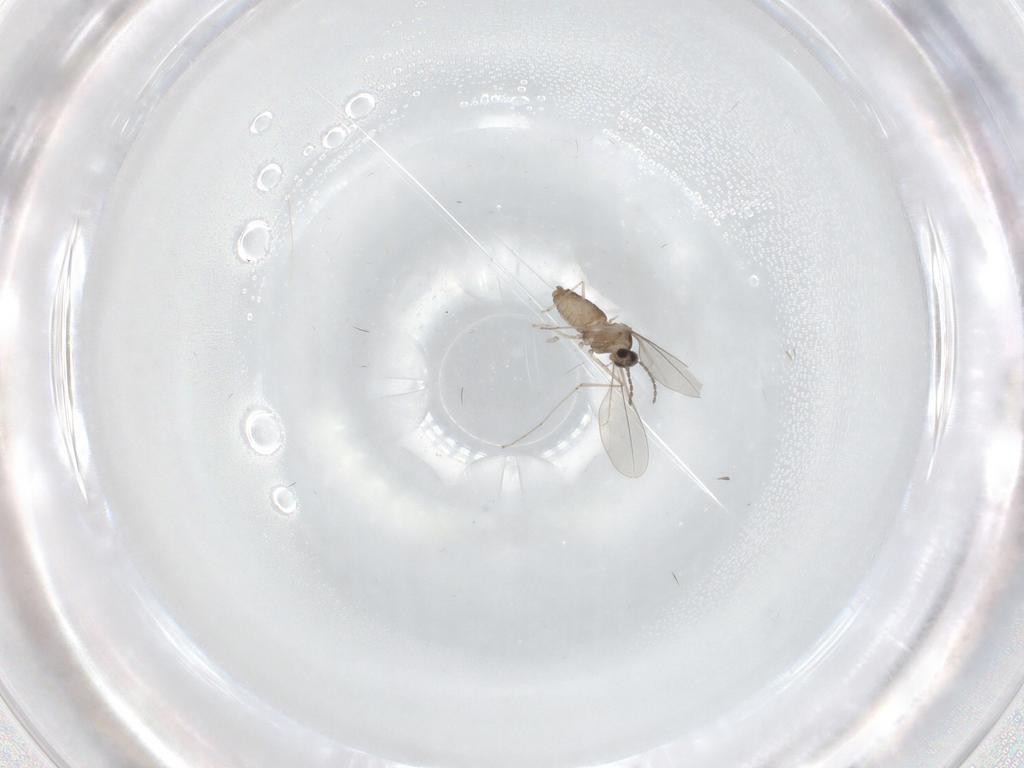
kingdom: Animalia
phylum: Arthropoda
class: Insecta
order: Diptera
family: Cecidomyiidae
